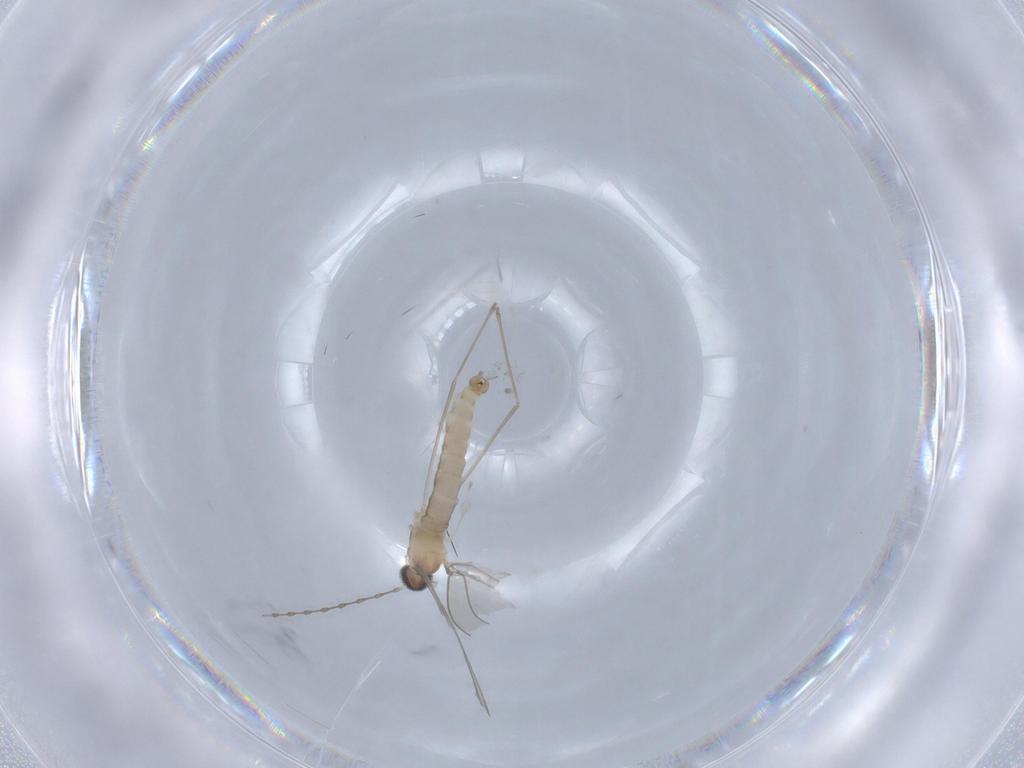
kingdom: Animalia
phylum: Arthropoda
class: Insecta
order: Diptera
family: Cecidomyiidae
